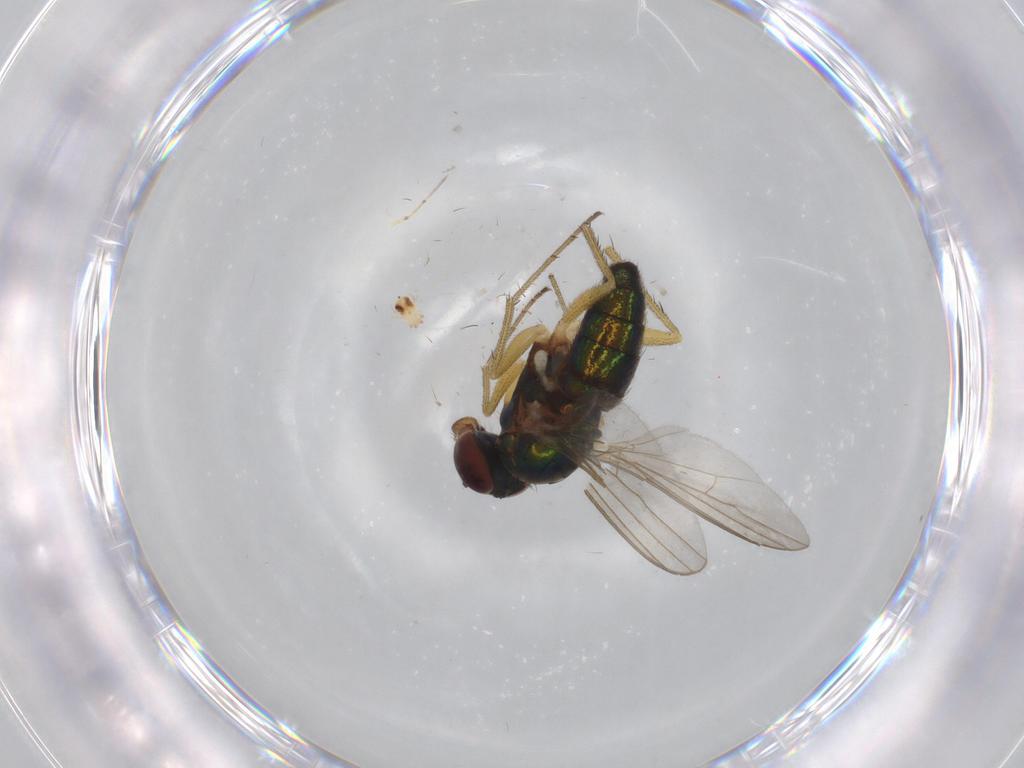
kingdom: Animalia
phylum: Arthropoda
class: Insecta
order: Diptera
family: Dolichopodidae
